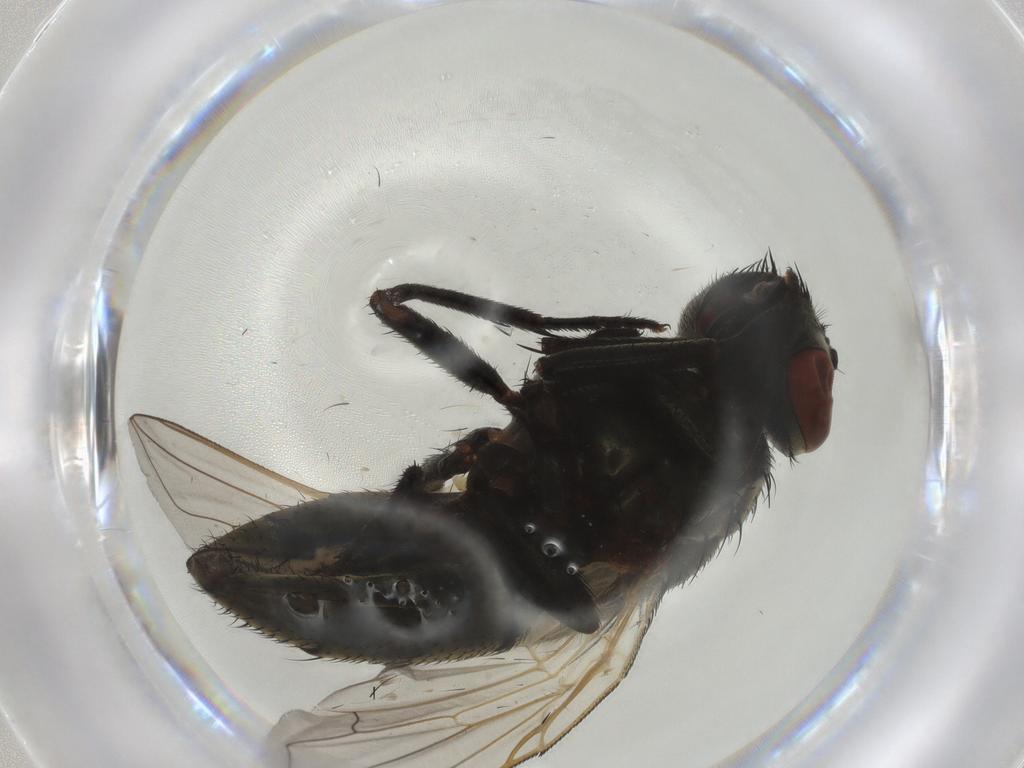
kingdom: Animalia
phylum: Arthropoda
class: Insecta
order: Diptera
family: Muscidae
